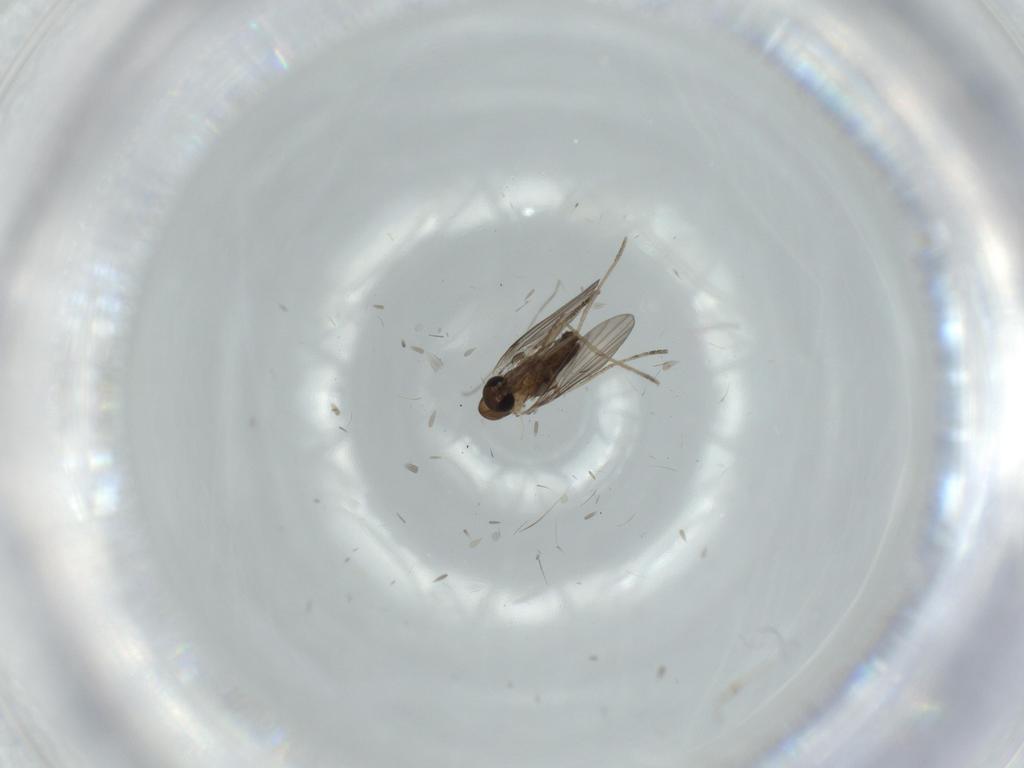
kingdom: Animalia
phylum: Arthropoda
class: Insecta
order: Diptera
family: Psychodidae
